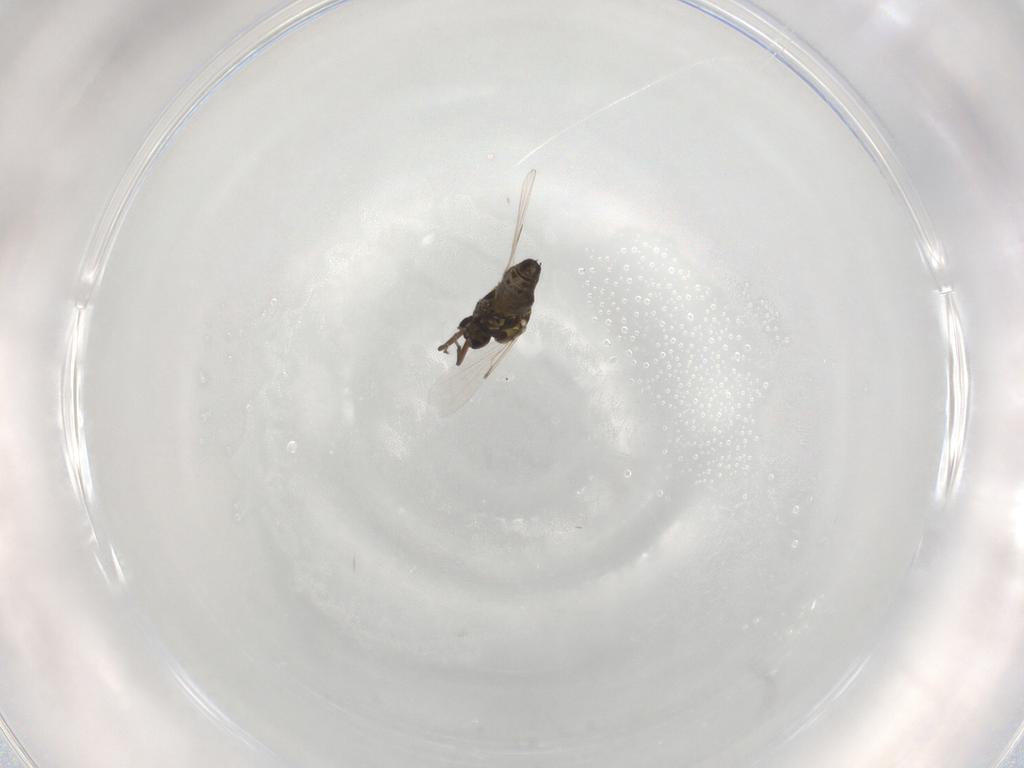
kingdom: Animalia
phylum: Arthropoda
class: Insecta
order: Diptera
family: Ceratopogonidae
